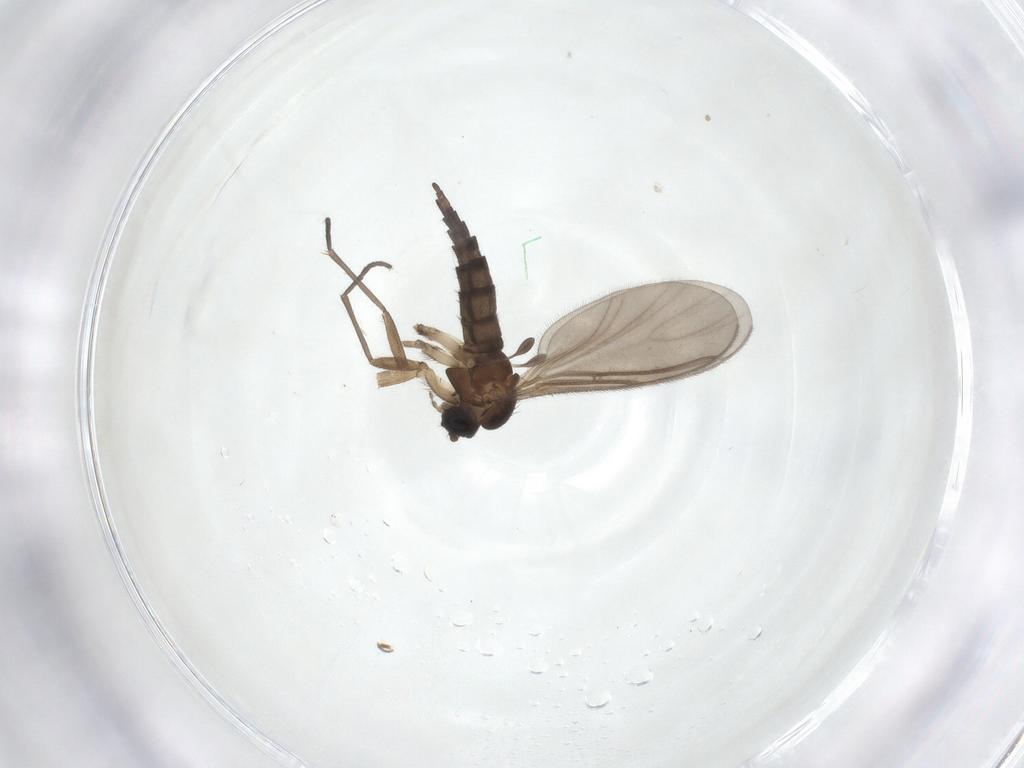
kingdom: Animalia
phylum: Arthropoda
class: Insecta
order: Diptera
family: Sciaridae
